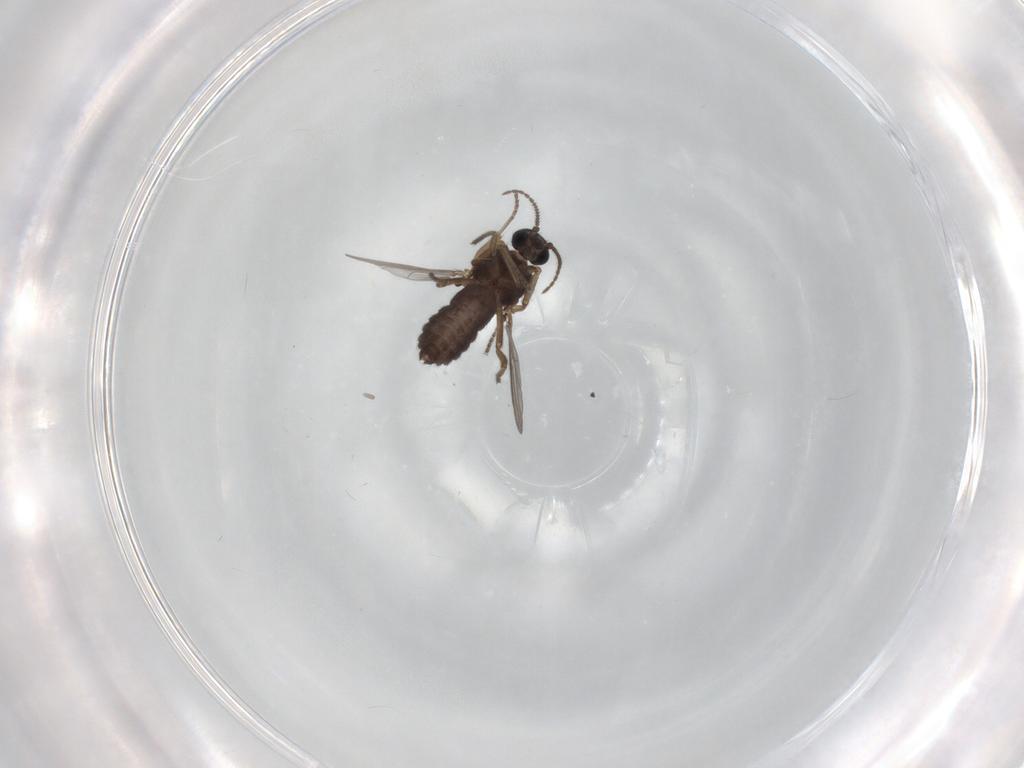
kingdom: Animalia
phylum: Arthropoda
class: Insecta
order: Diptera
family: Ceratopogonidae
